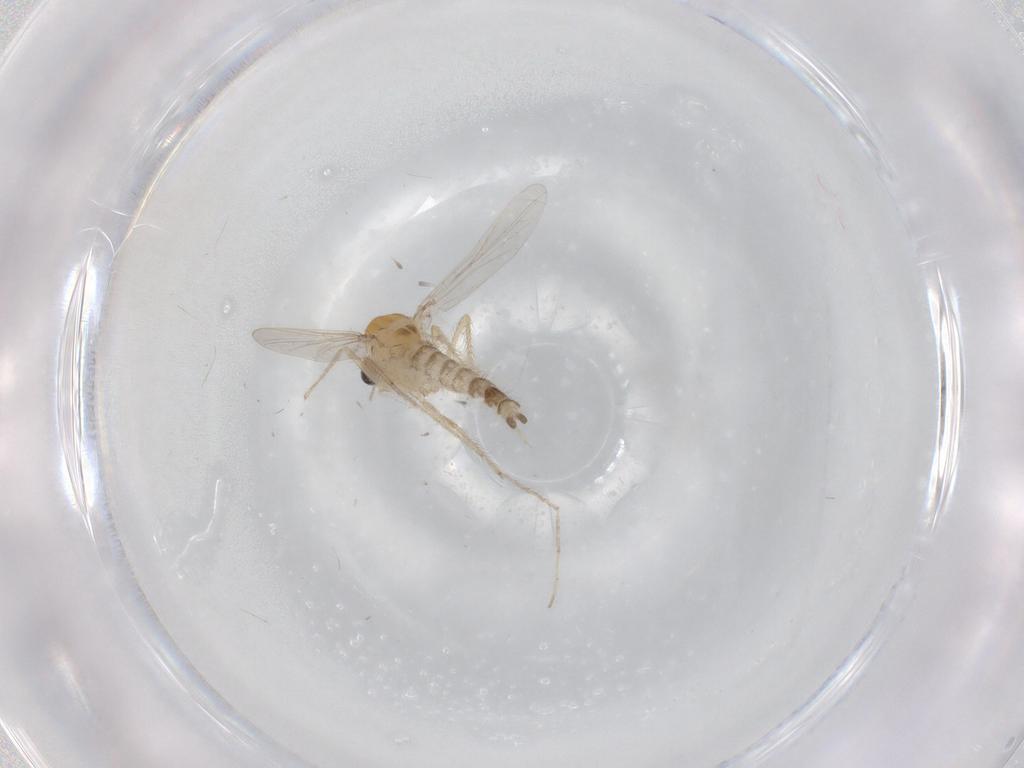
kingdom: Animalia
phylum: Arthropoda
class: Insecta
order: Diptera
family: Chironomidae
